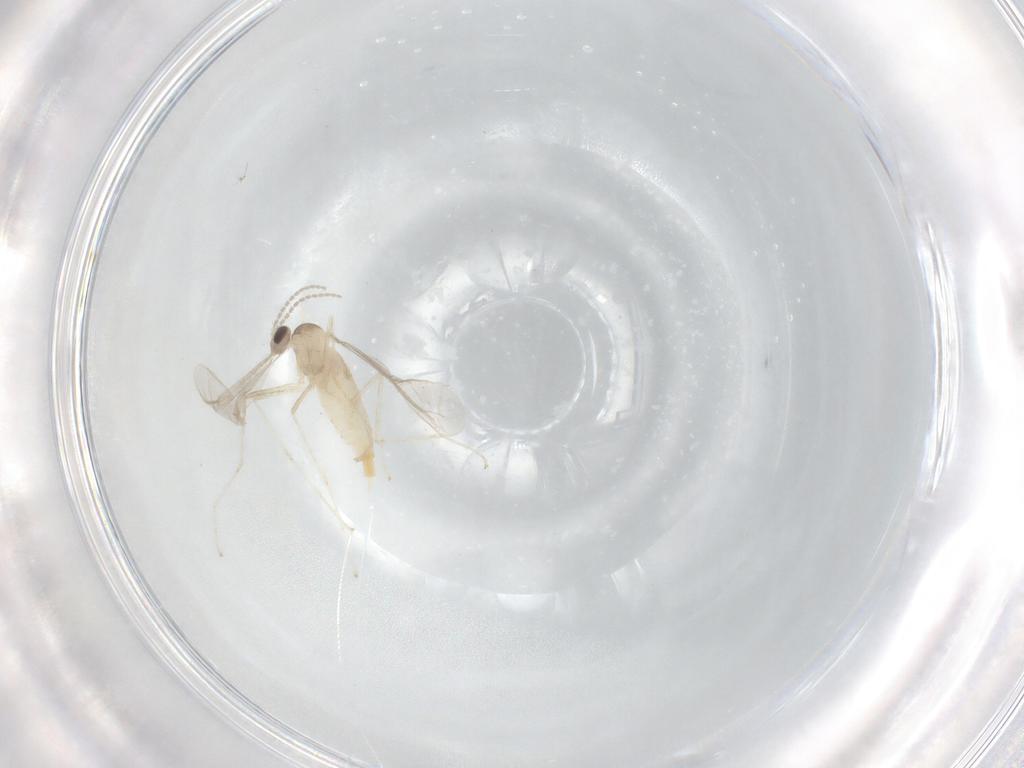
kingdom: Animalia
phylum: Arthropoda
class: Insecta
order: Diptera
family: Cecidomyiidae
